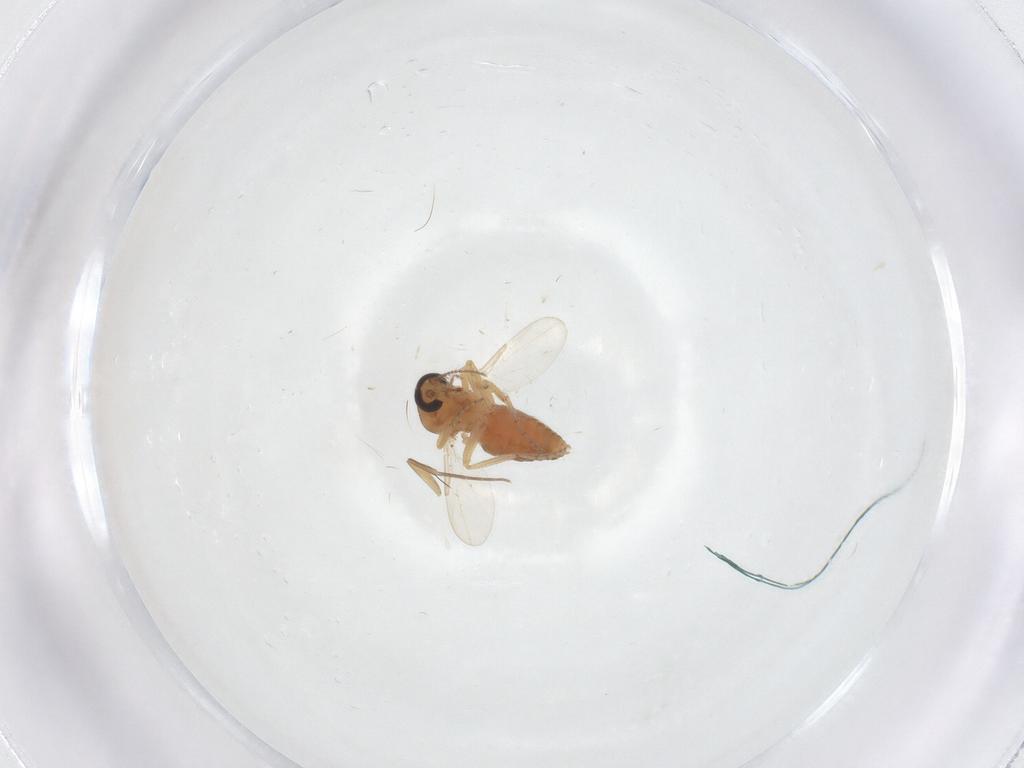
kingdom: Animalia
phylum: Arthropoda
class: Insecta
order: Diptera
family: Ceratopogonidae
